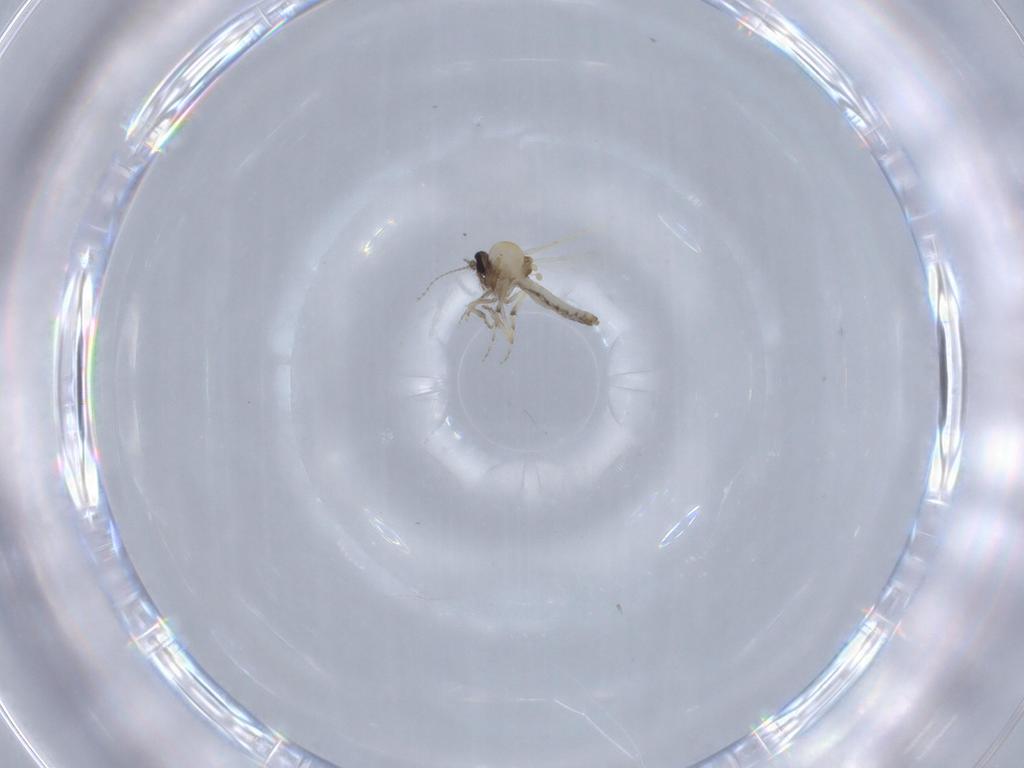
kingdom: Animalia
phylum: Arthropoda
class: Insecta
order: Diptera
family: Ceratopogonidae
